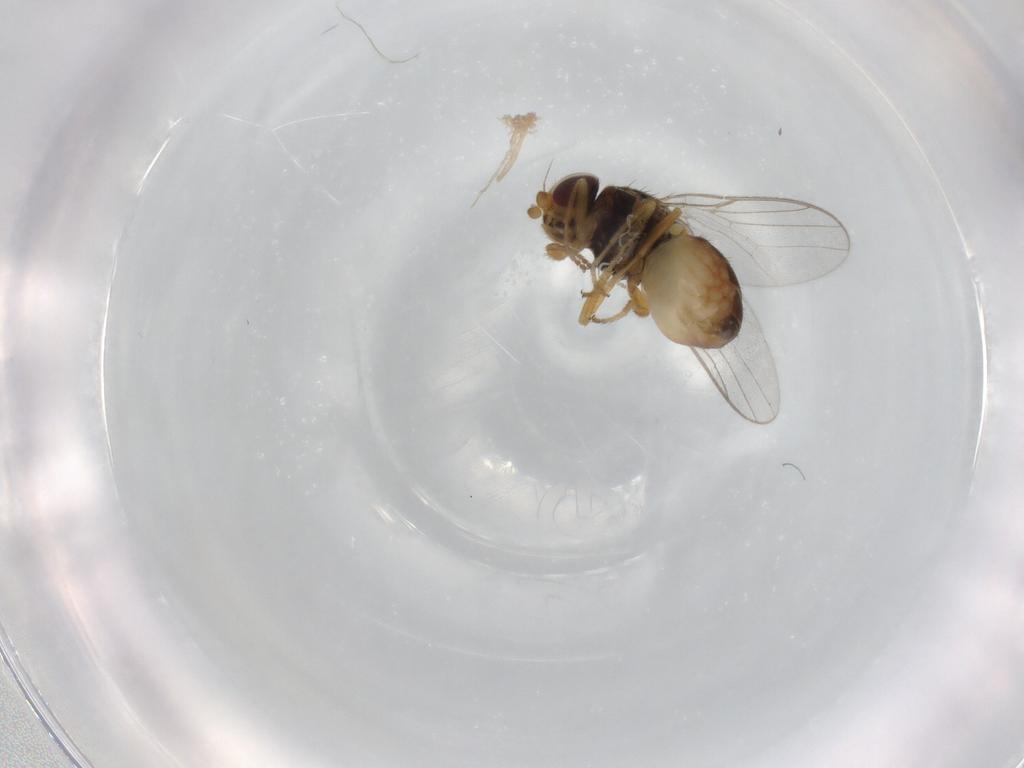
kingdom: Animalia
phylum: Arthropoda
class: Insecta
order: Diptera
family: Chloropidae
